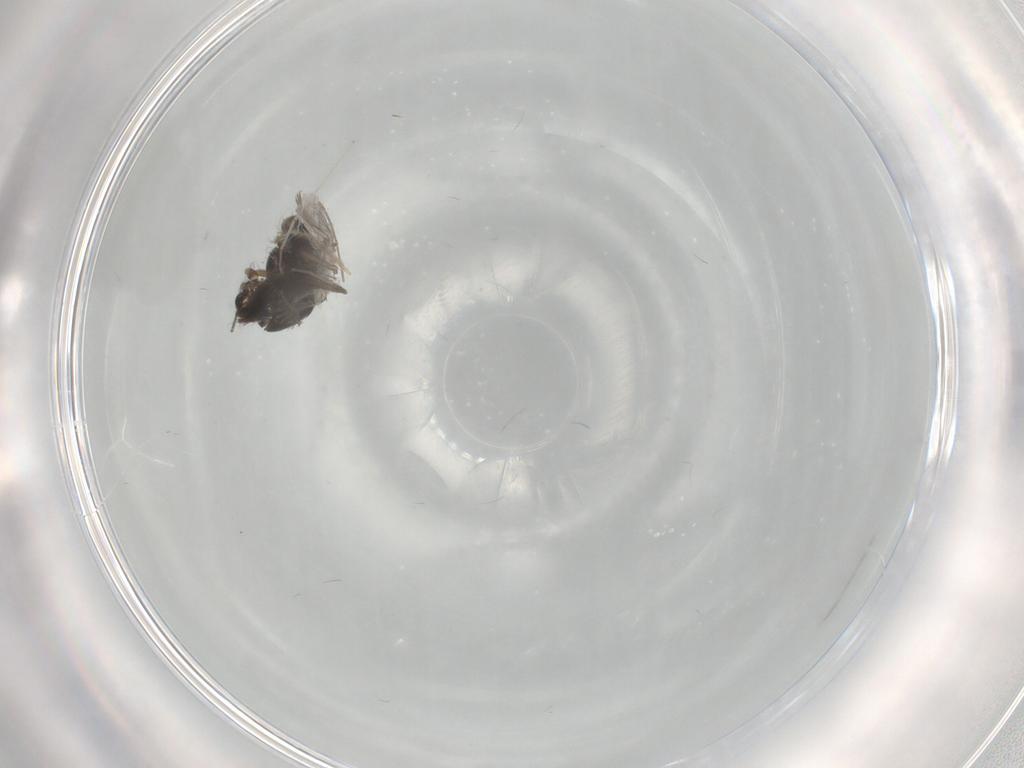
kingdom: Animalia
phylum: Arthropoda
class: Insecta
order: Diptera
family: Chironomidae
